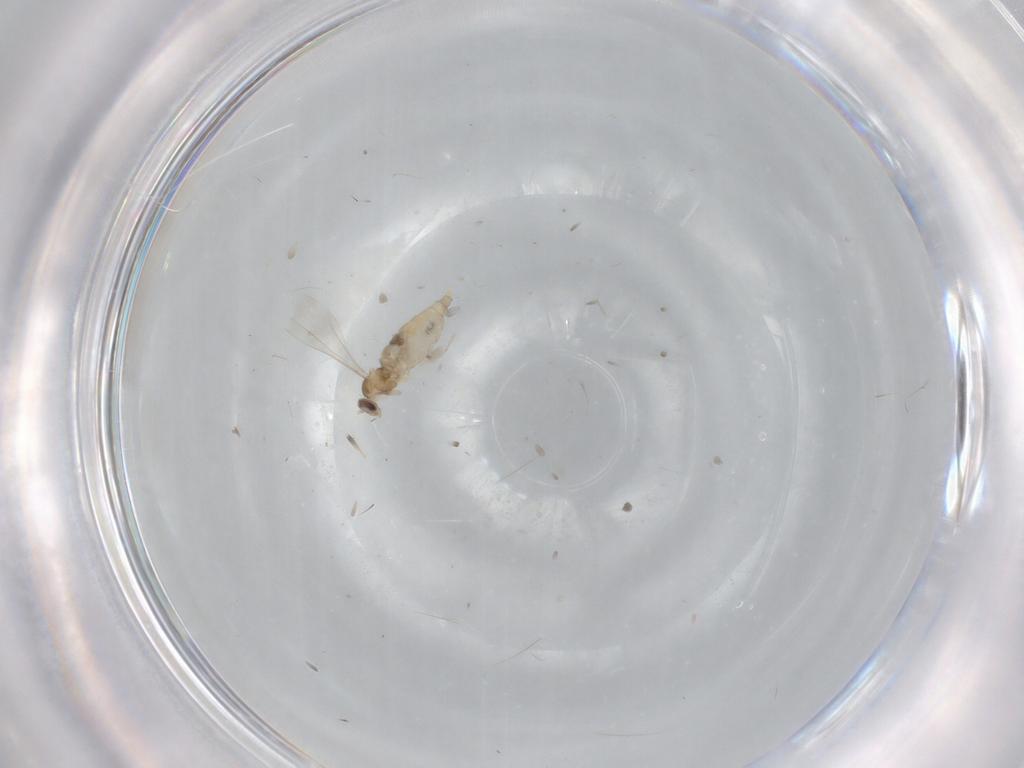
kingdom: Animalia
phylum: Arthropoda
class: Insecta
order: Diptera
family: Cecidomyiidae
